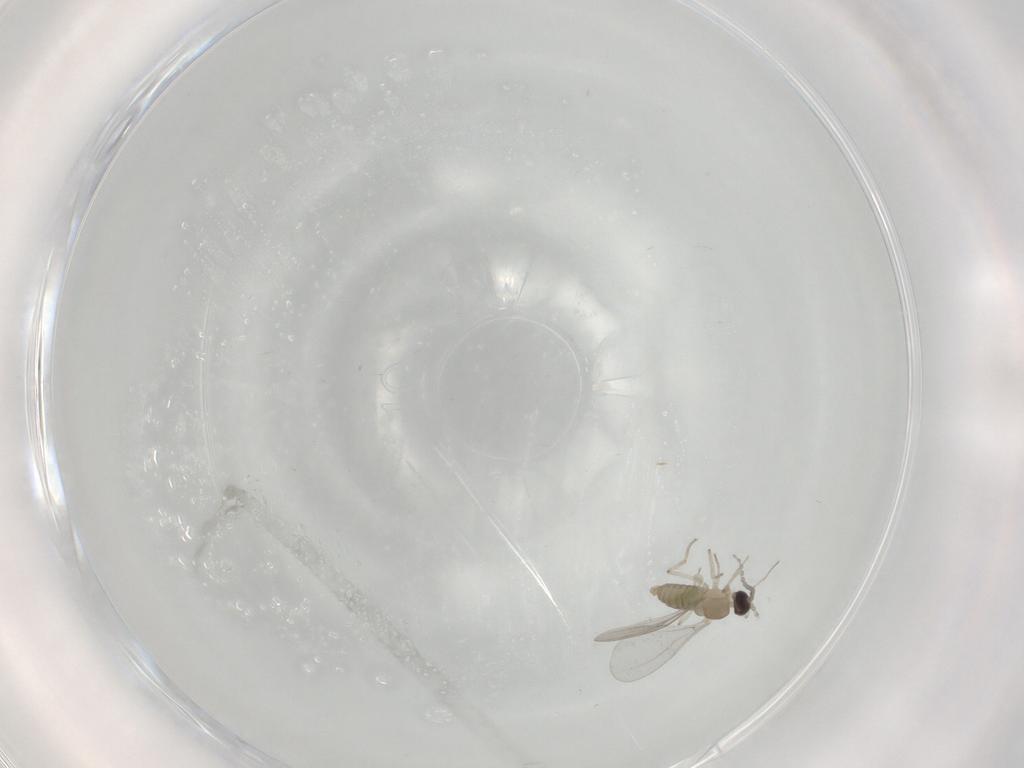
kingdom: Animalia
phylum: Arthropoda
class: Insecta
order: Diptera
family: Cecidomyiidae
